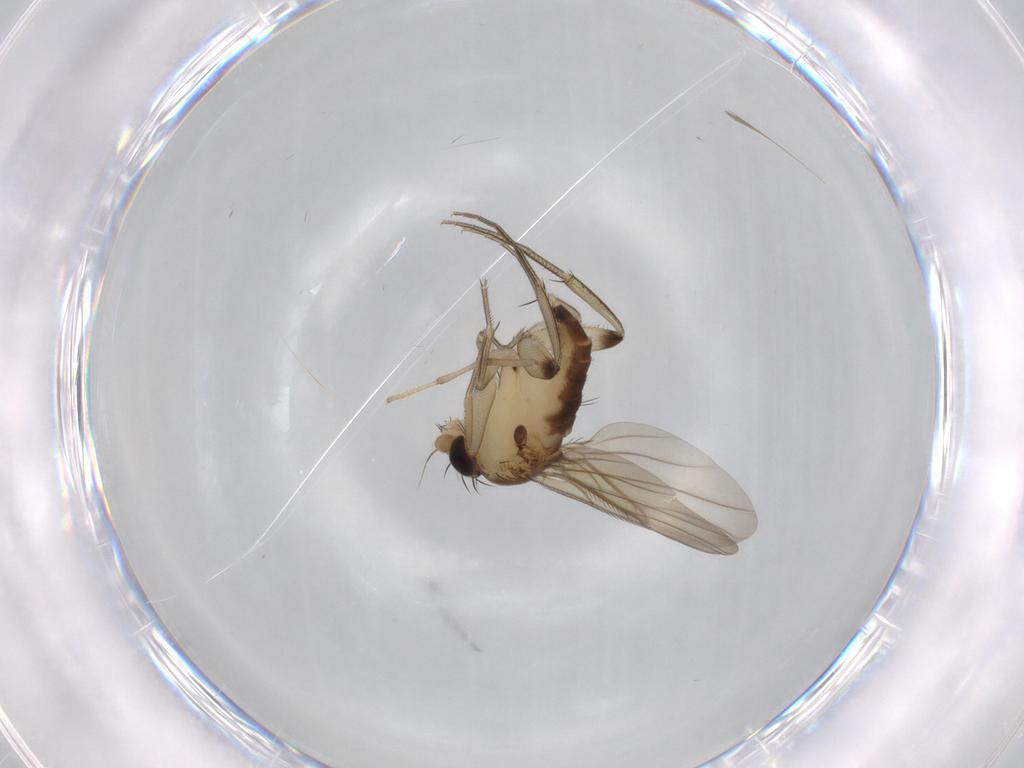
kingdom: Animalia
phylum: Arthropoda
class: Insecta
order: Diptera
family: Phoridae
